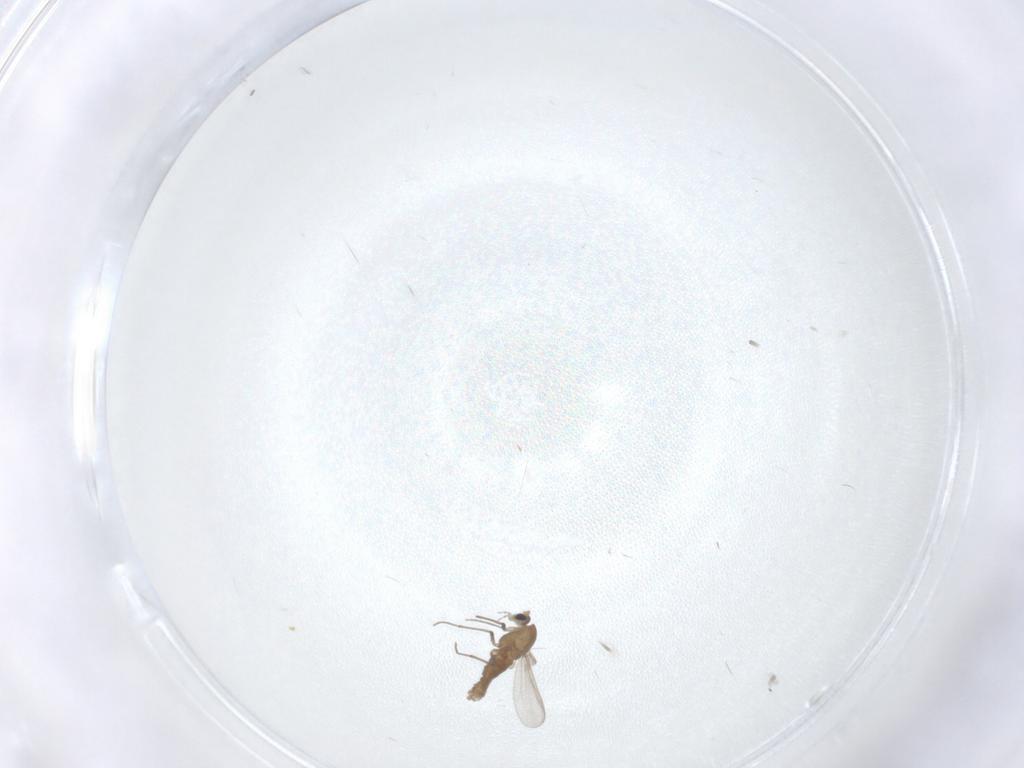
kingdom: Animalia
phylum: Arthropoda
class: Insecta
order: Diptera
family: Chironomidae
